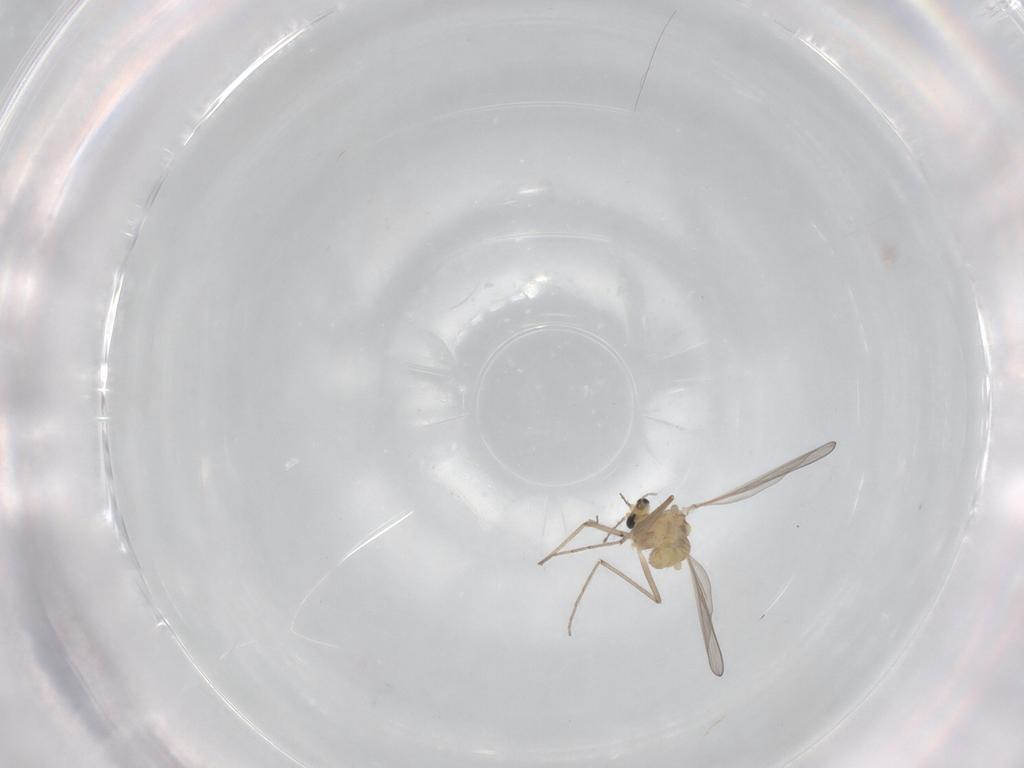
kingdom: Animalia
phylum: Arthropoda
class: Insecta
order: Diptera
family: Chironomidae
